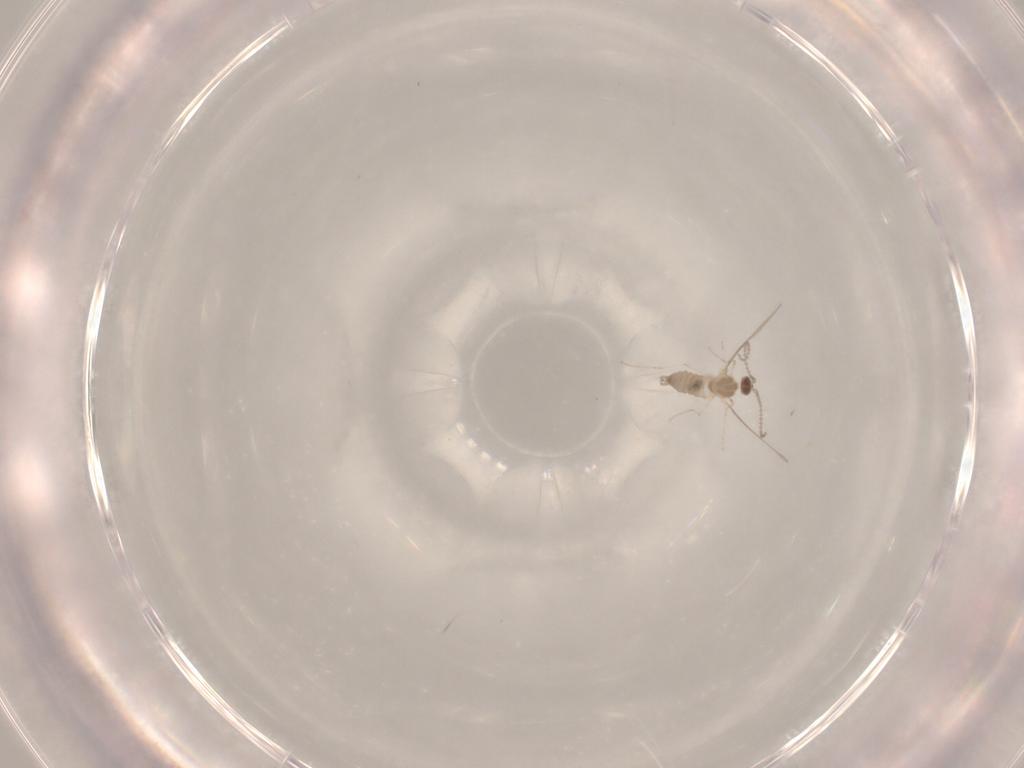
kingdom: Animalia
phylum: Arthropoda
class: Insecta
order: Diptera
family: Cecidomyiidae
